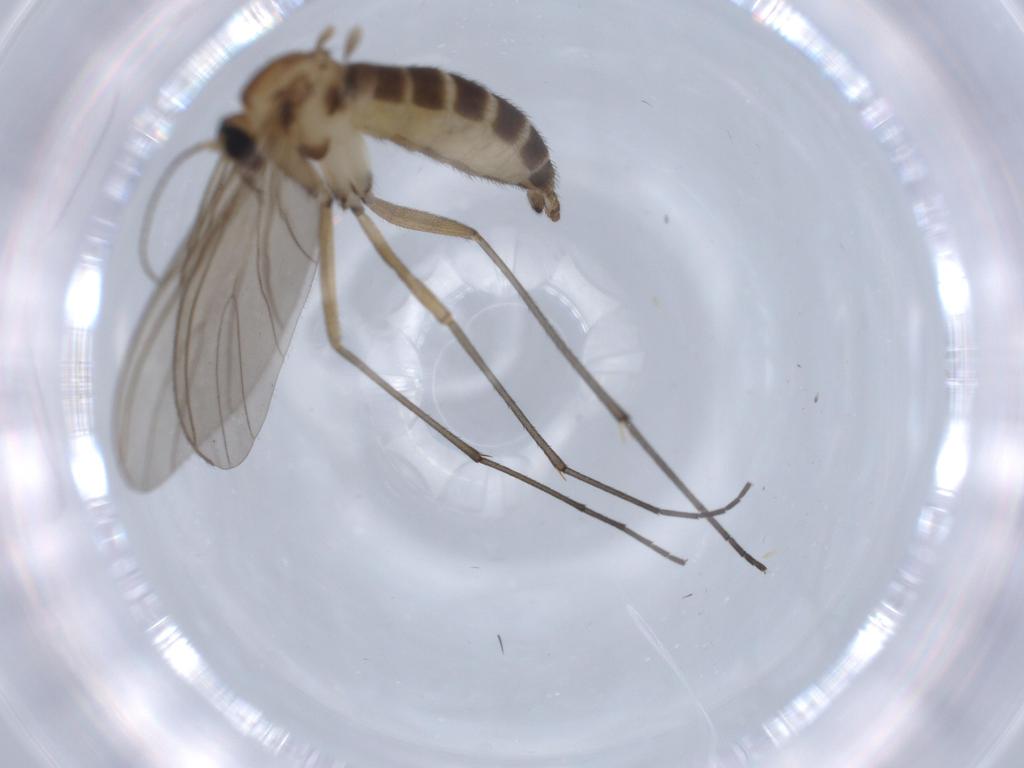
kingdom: Animalia
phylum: Arthropoda
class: Insecta
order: Diptera
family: Sciaridae
